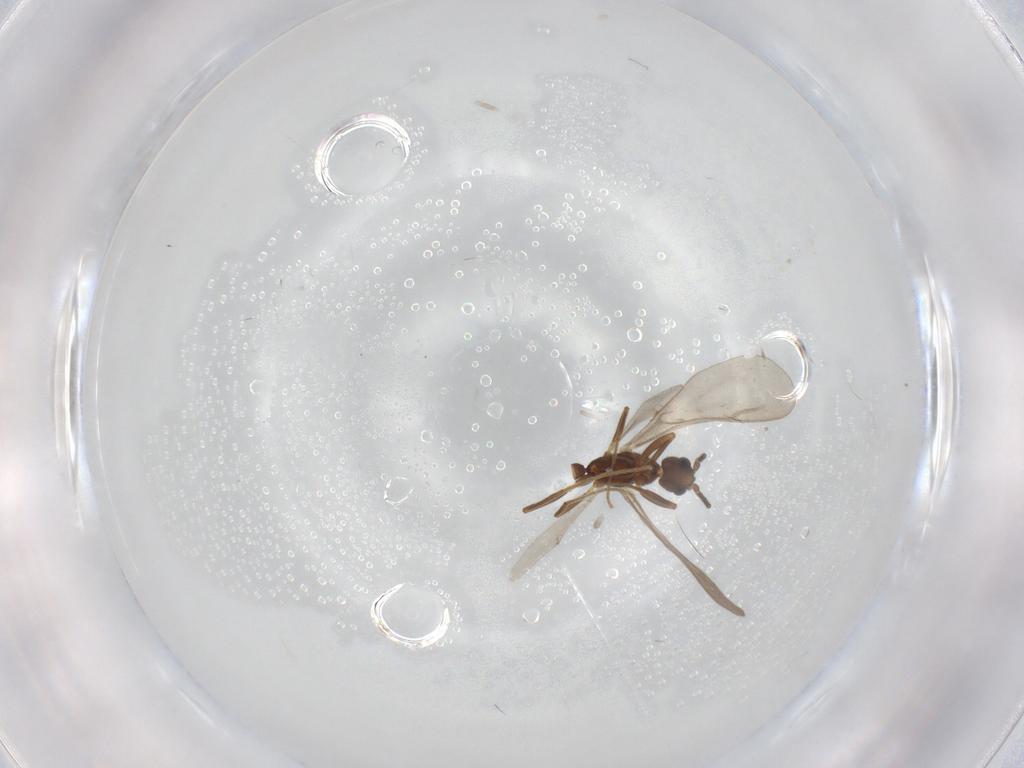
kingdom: Animalia
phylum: Arthropoda
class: Insecta
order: Hymenoptera
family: Formicidae
